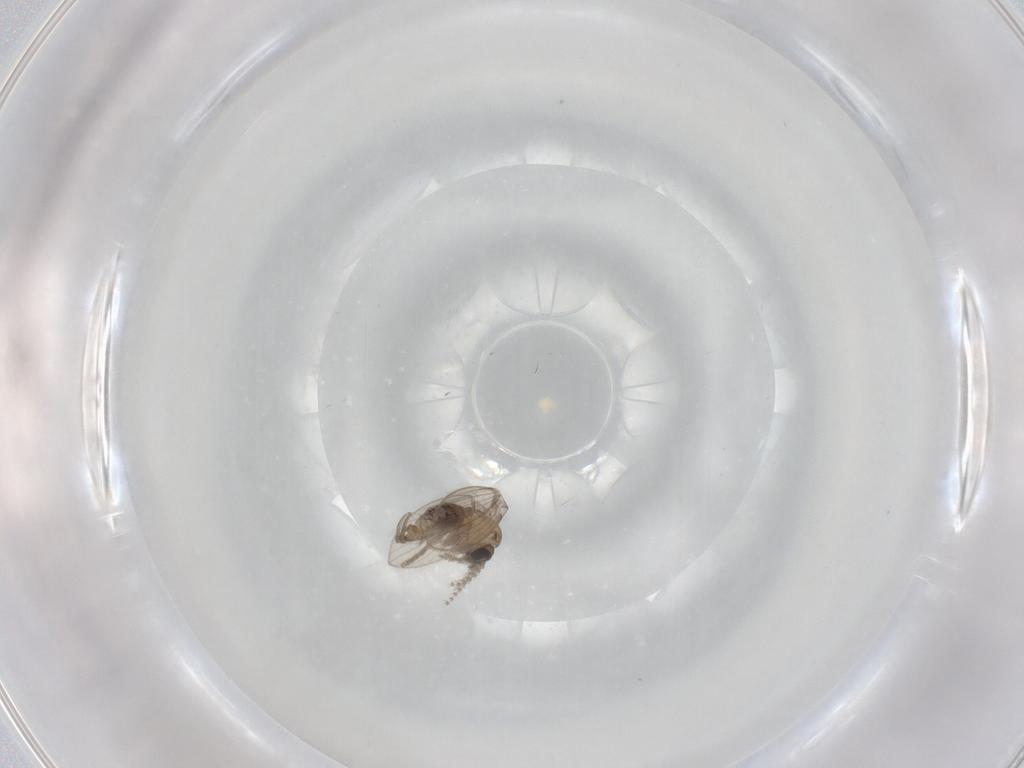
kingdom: Animalia
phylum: Arthropoda
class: Insecta
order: Diptera
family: Psychodidae
